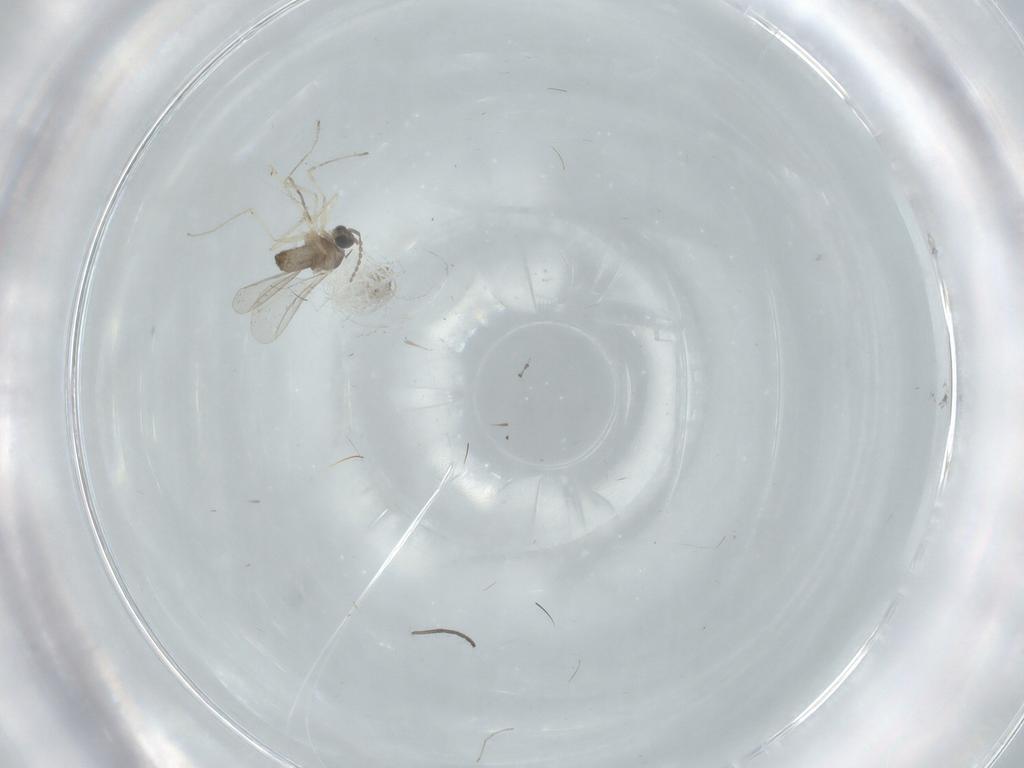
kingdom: Animalia
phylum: Arthropoda
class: Insecta
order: Diptera
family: Cecidomyiidae
